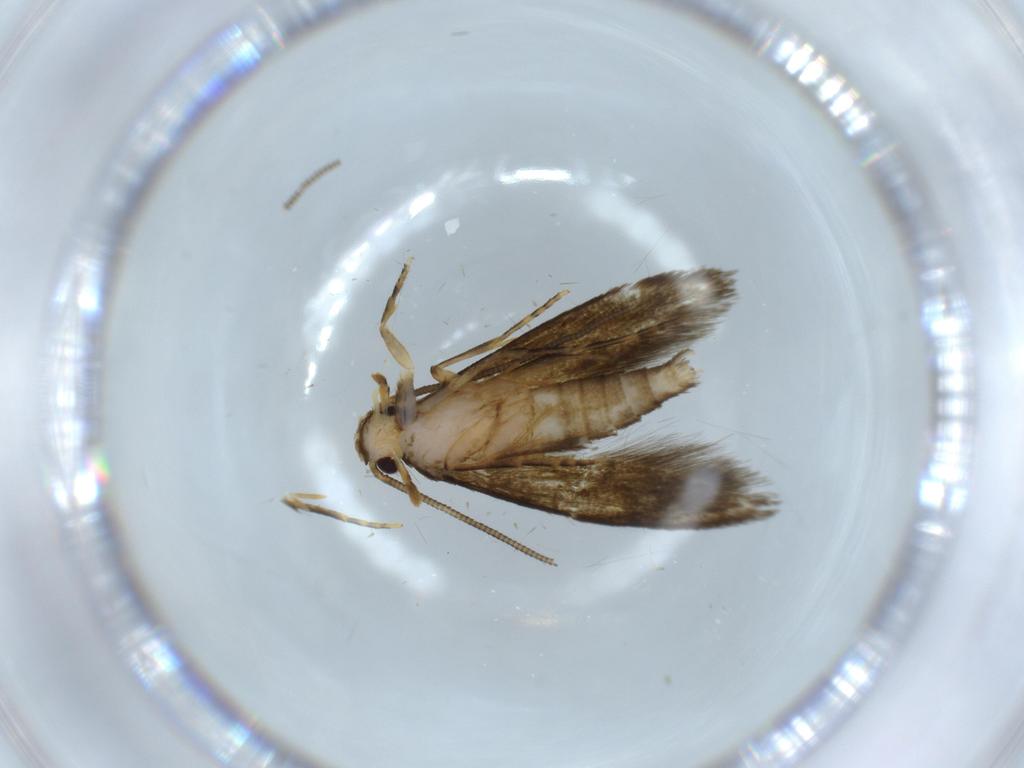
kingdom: Animalia
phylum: Arthropoda
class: Insecta
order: Lepidoptera
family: Tineidae
